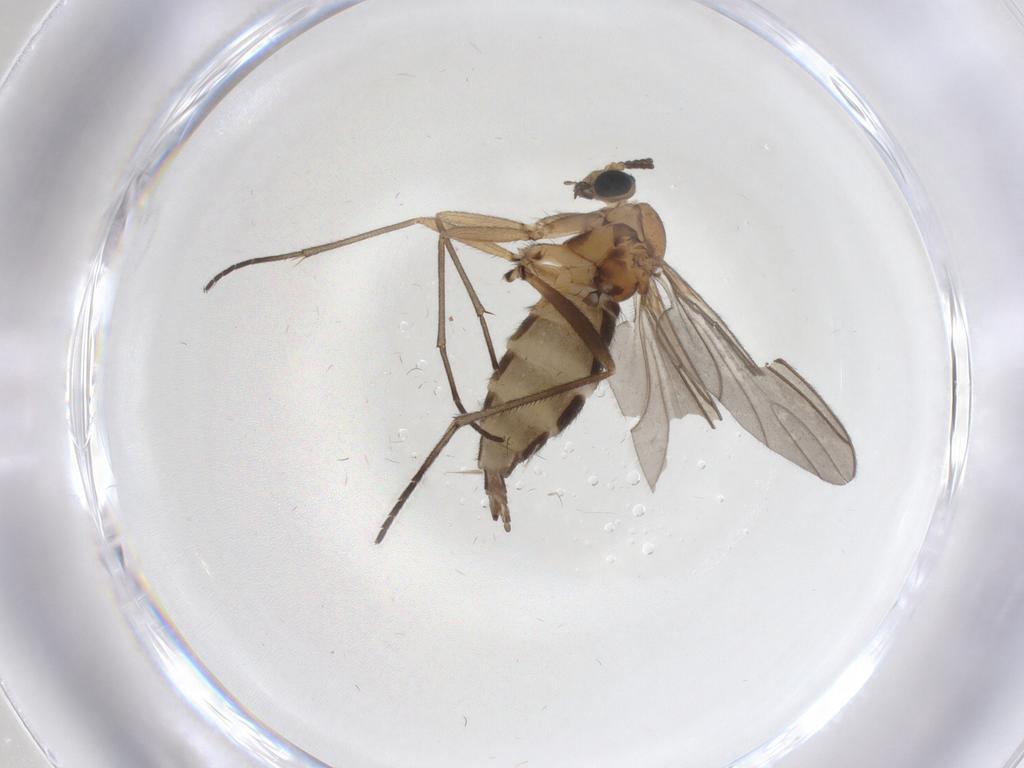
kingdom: Animalia
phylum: Arthropoda
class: Insecta
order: Diptera
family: Sciaridae
